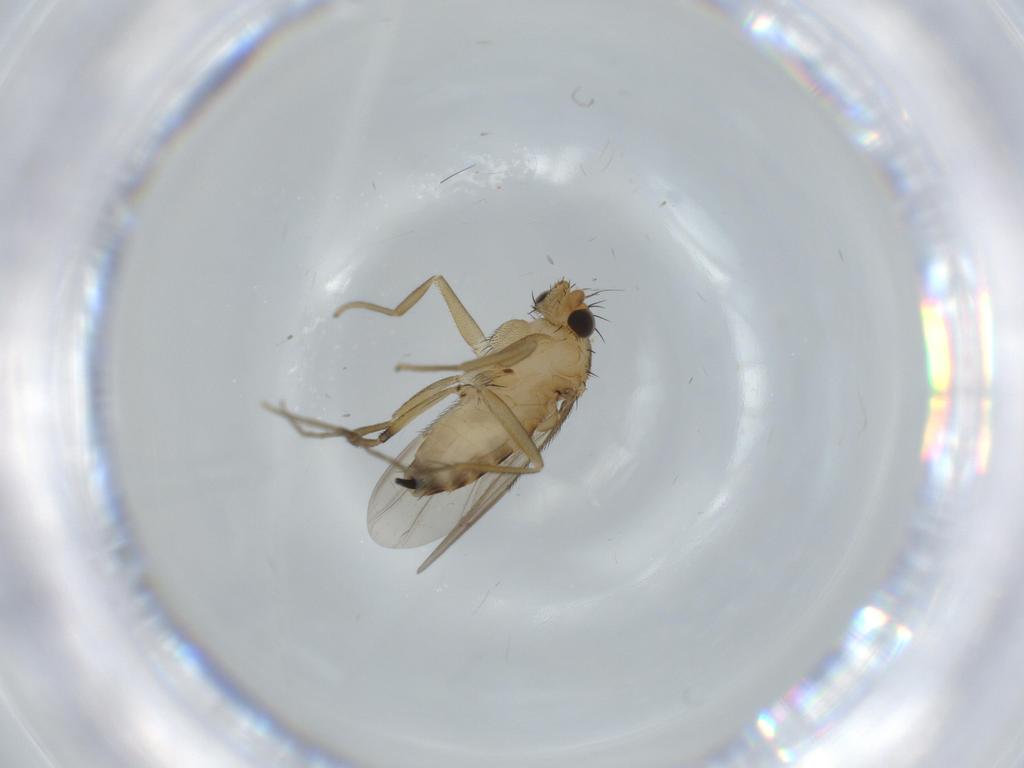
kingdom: Animalia
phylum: Arthropoda
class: Insecta
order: Diptera
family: Phoridae
